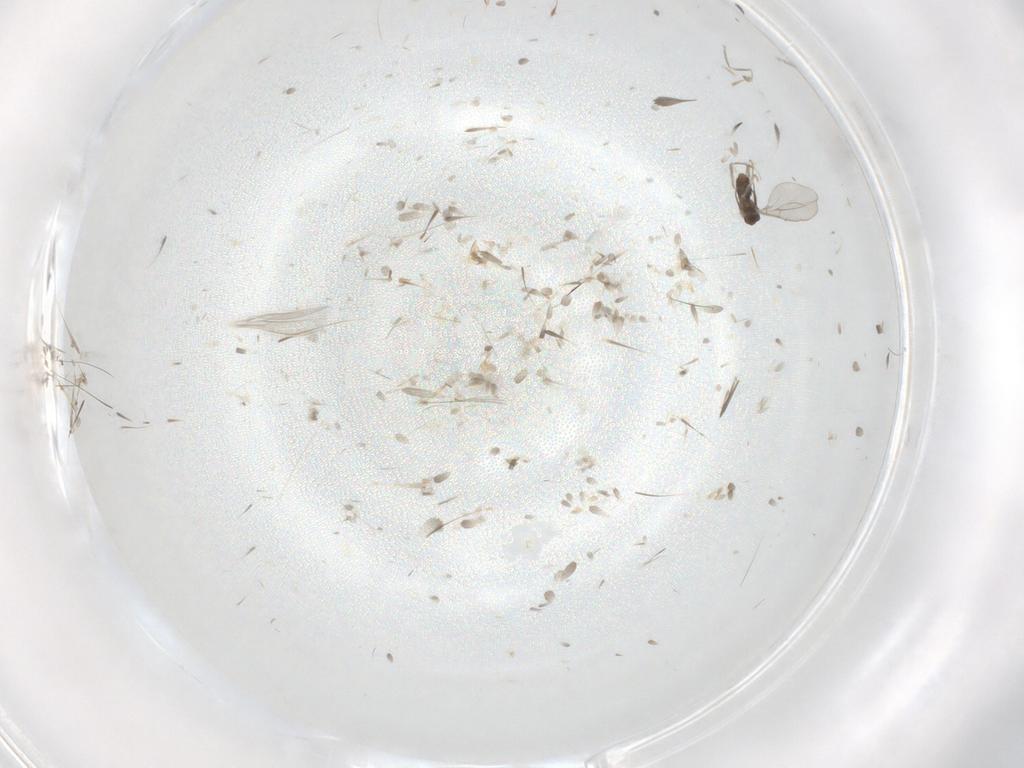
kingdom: Animalia
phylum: Arthropoda
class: Insecta
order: Diptera
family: Cecidomyiidae
